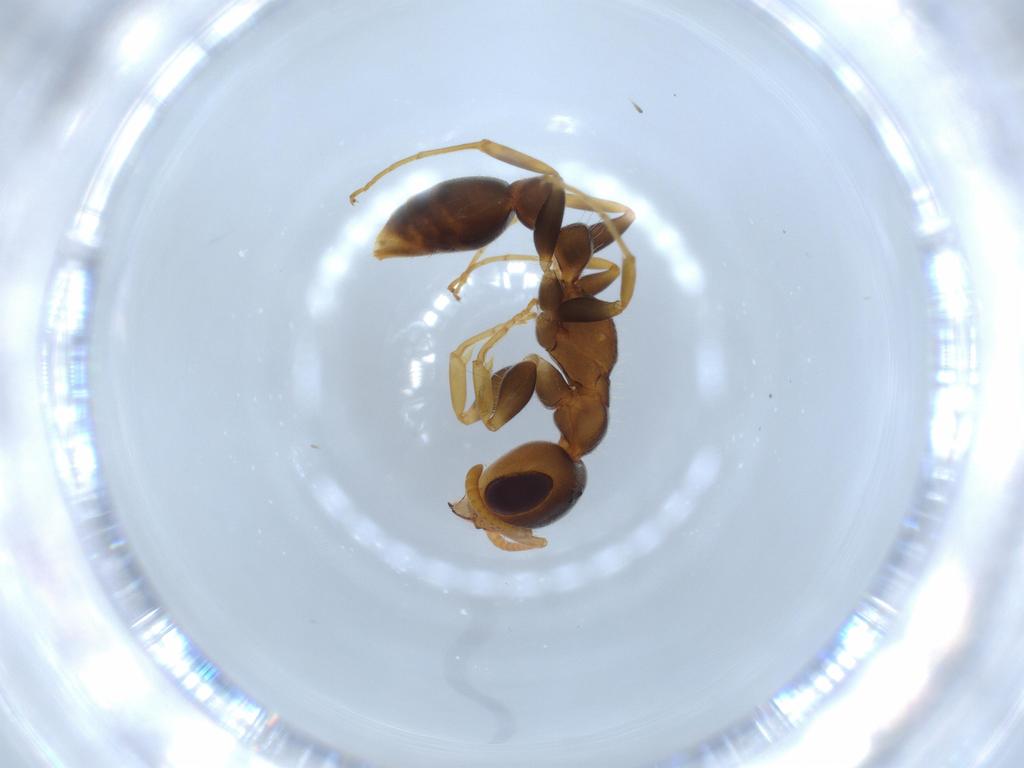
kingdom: Animalia
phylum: Arthropoda
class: Insecta
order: Hymenoptera
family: Formicidae
